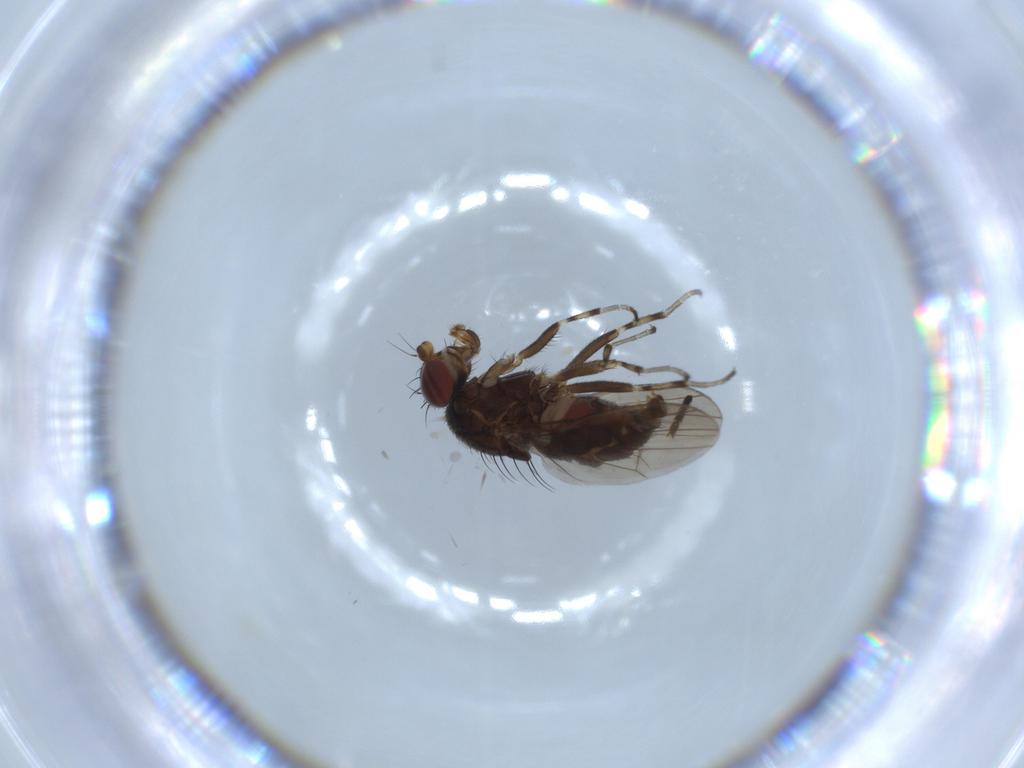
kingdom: Animalia
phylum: Arthropoda
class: Insecta
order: Diptera
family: Heleomyzidae
